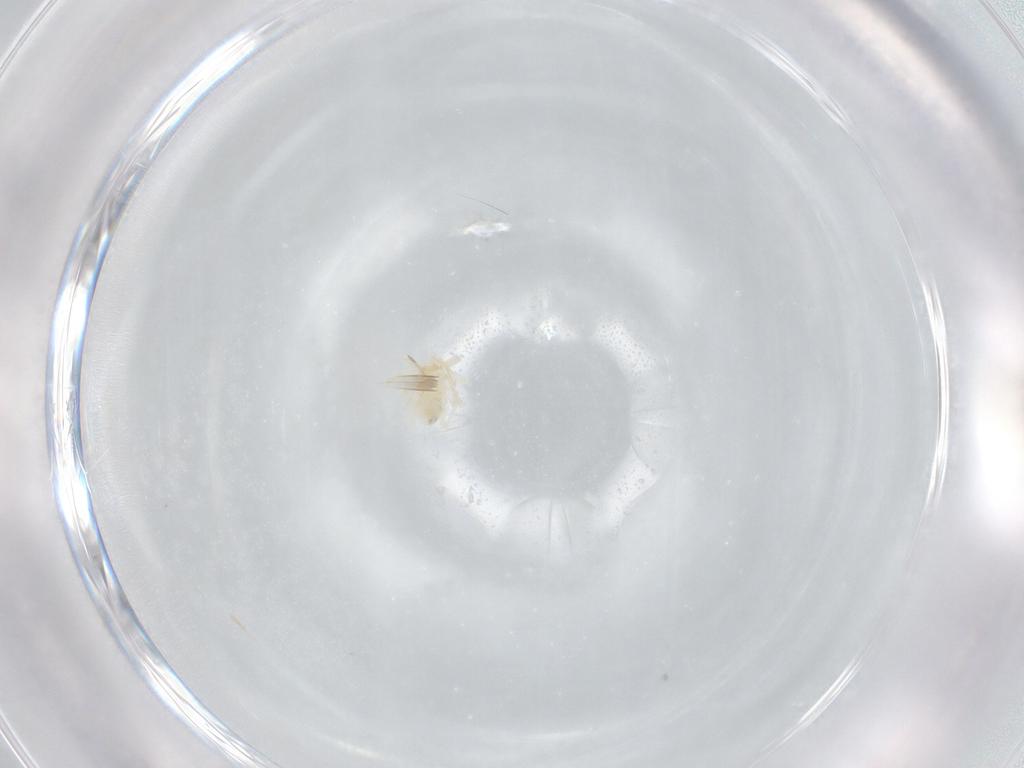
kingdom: Animalia
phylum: Arthropoda
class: Arachnida
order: Trombidiformes
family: Anystidae
